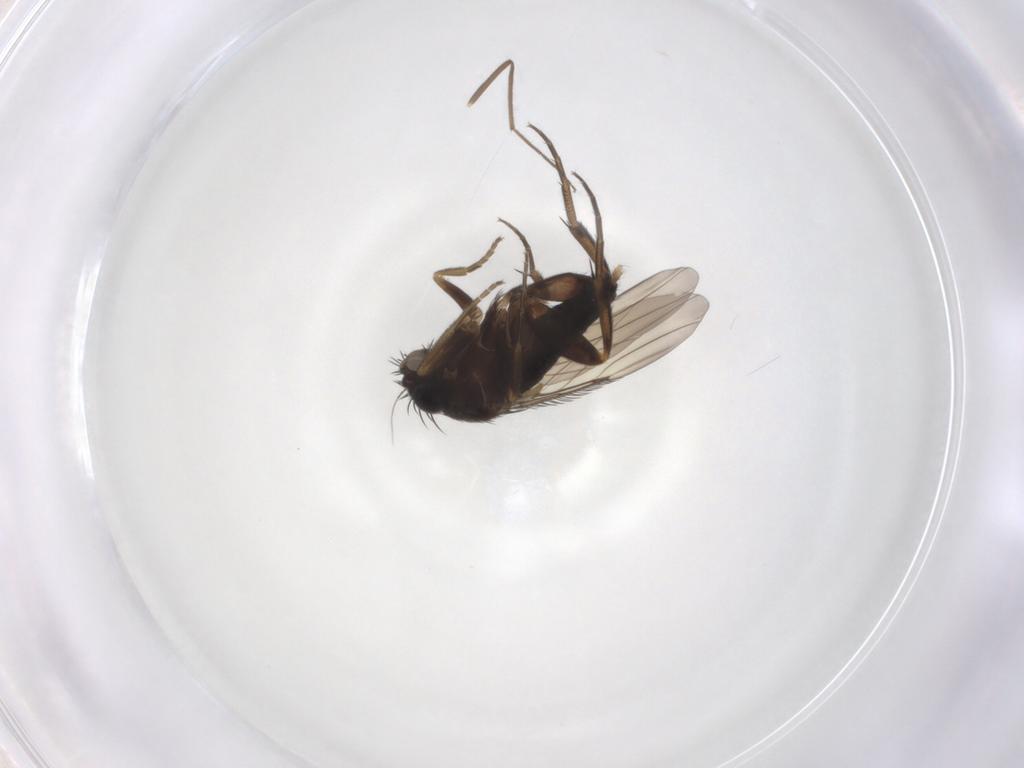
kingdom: Animalia
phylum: Arthropoda
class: Insecta
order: Diptera
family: Phoridae
